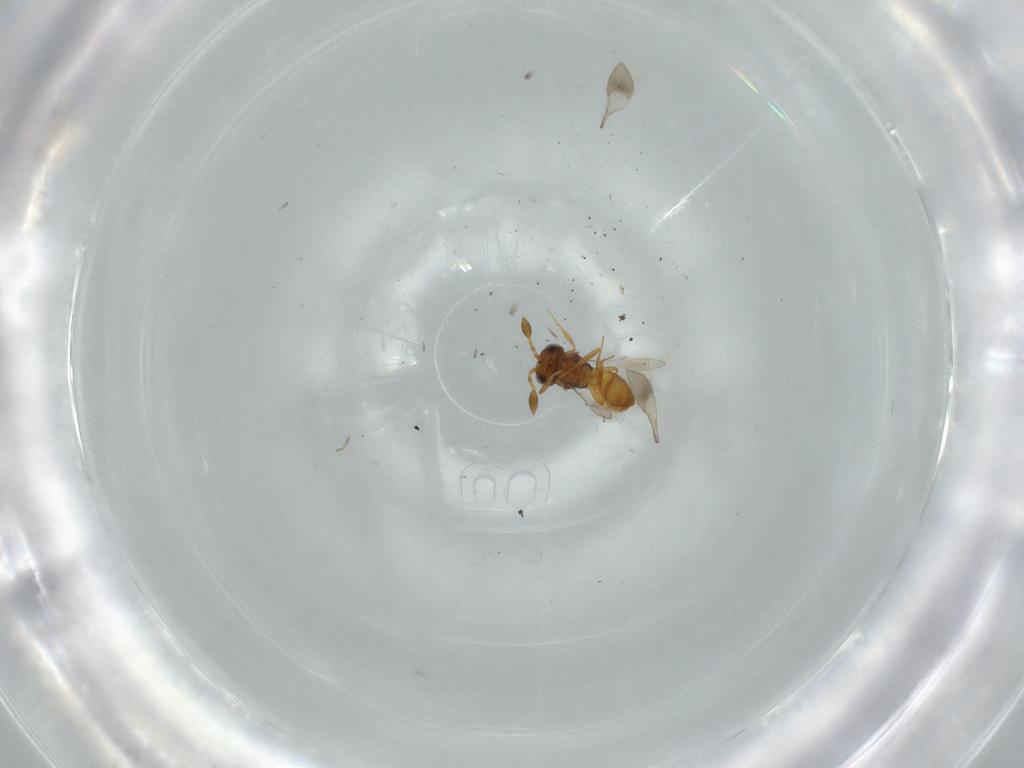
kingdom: Animalia
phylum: Arthropoda
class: Insecta
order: Hymenoptera
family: Scelionidae
